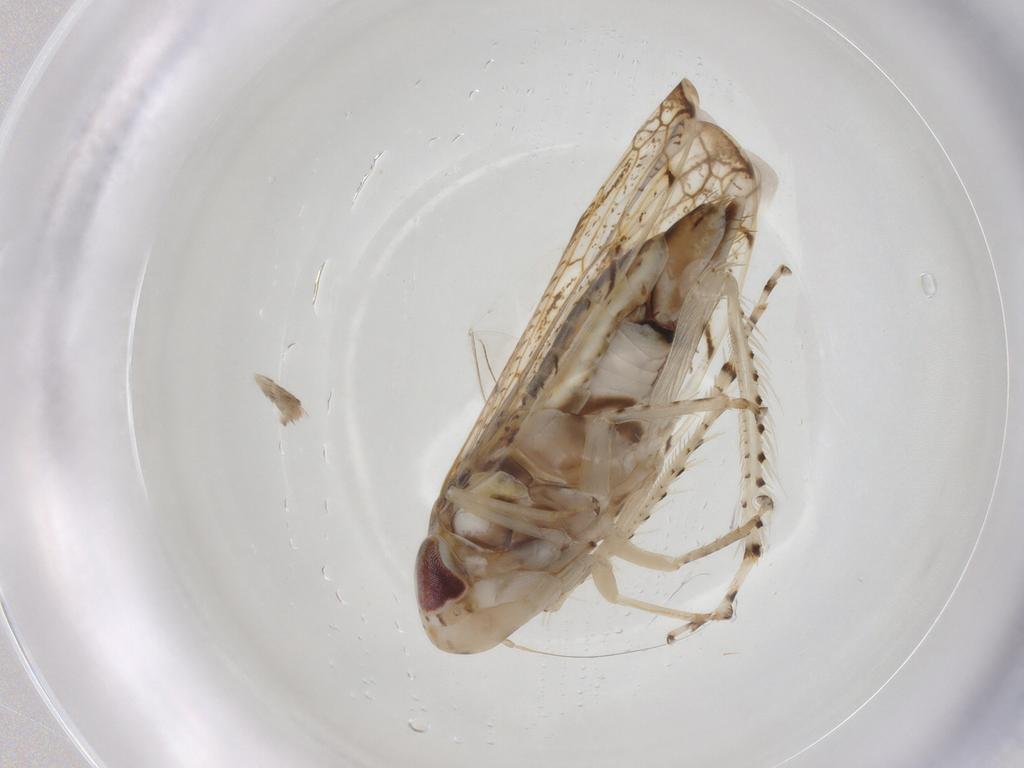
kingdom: Animalia
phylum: Arthropoda
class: Insecta
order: Hemiptera
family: Cicadellidae
